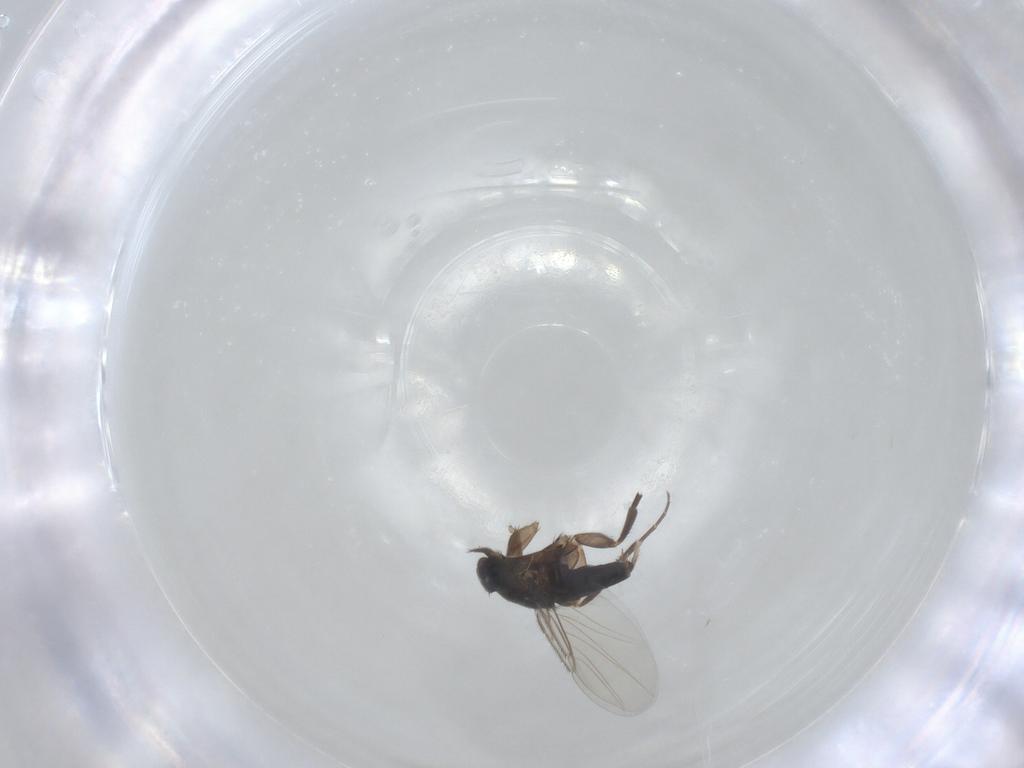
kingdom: Animalia
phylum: Arthropoda
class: Insecta
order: Diptera
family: Phoridae
